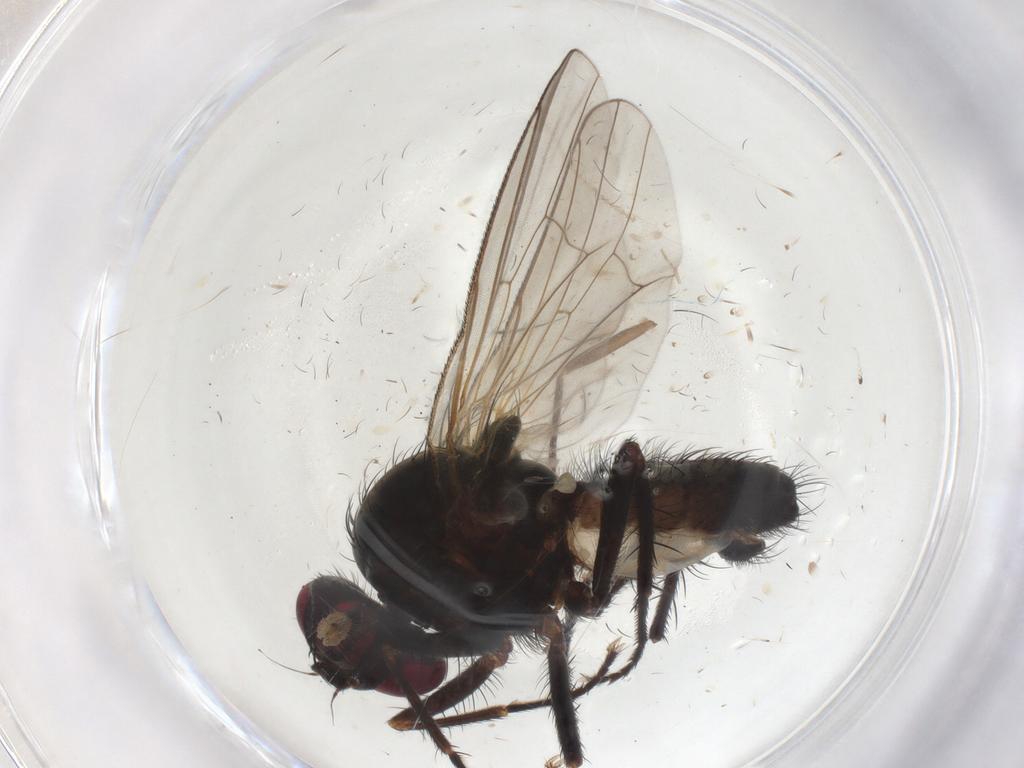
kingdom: Animalia
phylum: Arthropoda
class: Insecta
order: Diptera
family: Anthomyiidae
